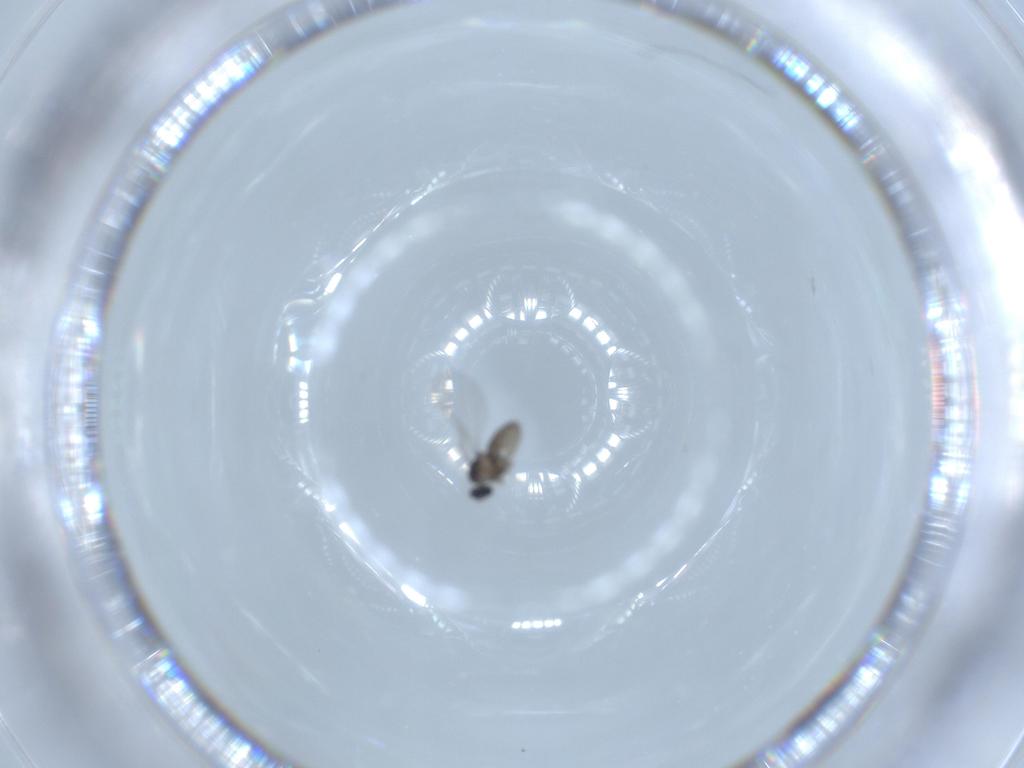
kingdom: Animalia
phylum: Arthropoda
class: Insecta
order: Diptera
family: Cecidomyiidae
